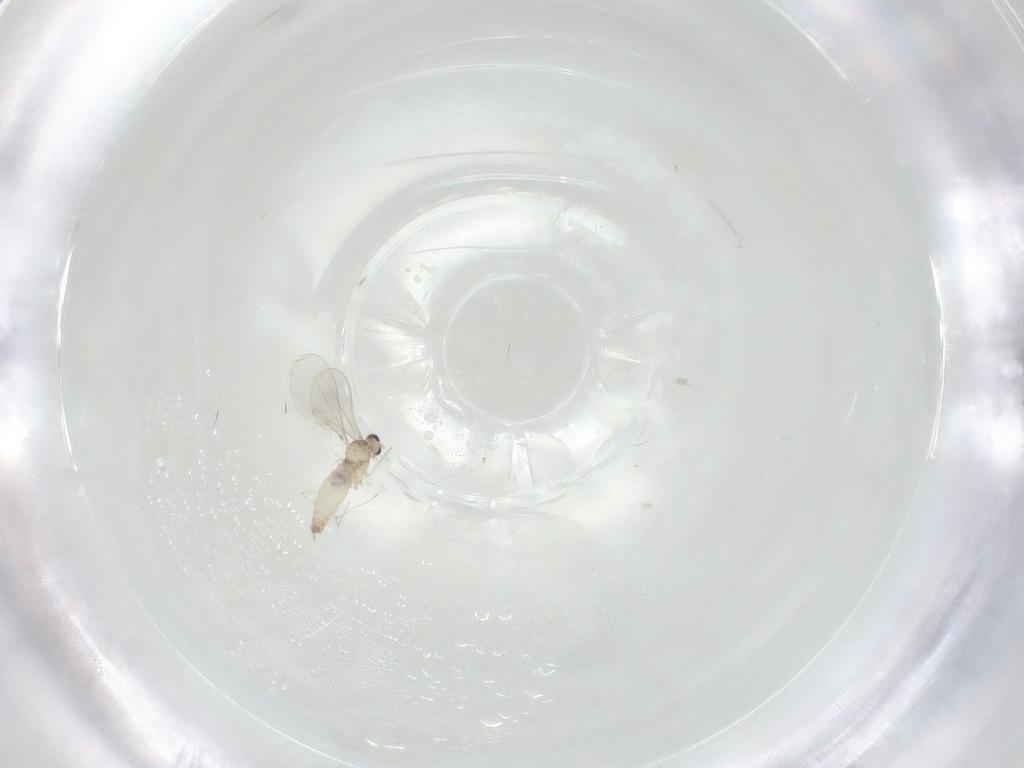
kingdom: Animalia
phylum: Arthropoda
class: Insecta
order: Diptera
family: Cecidomyiidae
